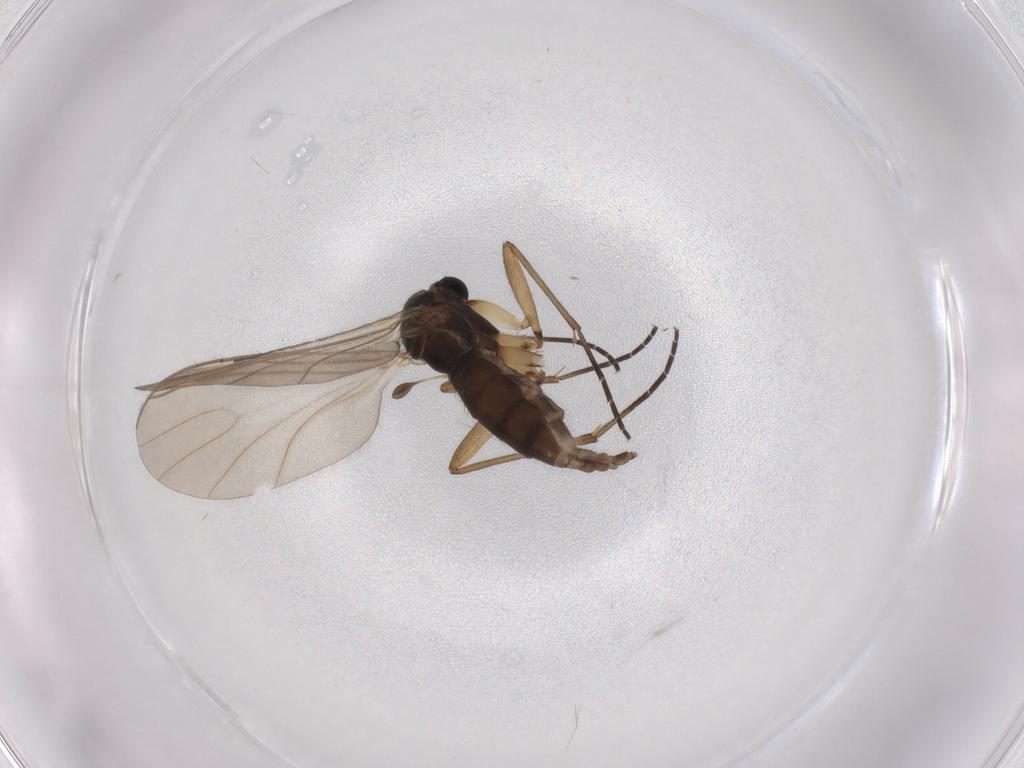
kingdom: Animalia
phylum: Arthropoda
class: Insecta
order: Diptera
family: Sciaridae
